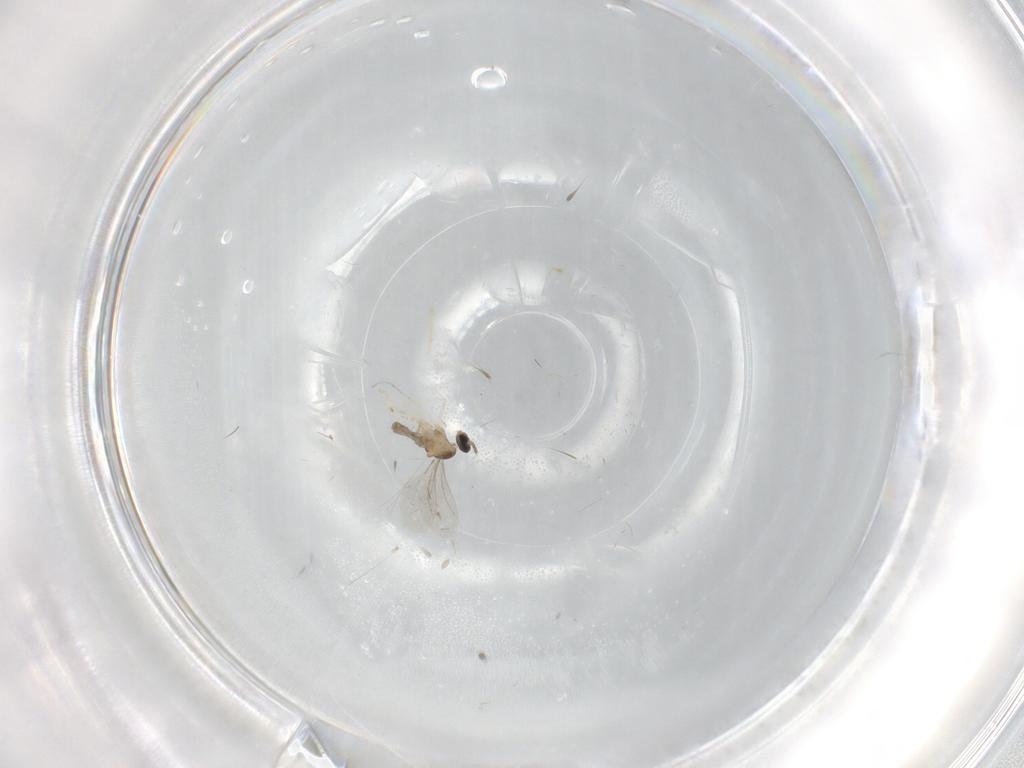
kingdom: Animalia
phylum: Arthropoda
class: Insecta
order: Diptera
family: Cecidomyiidae
